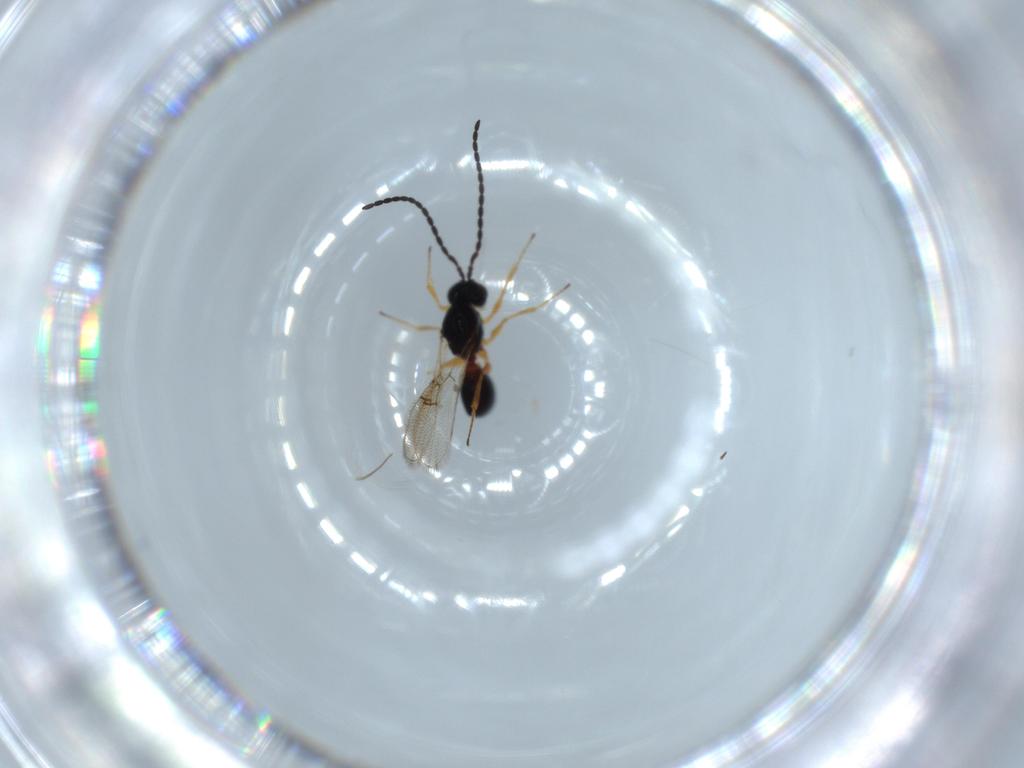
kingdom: Animalia
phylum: Arthropoda
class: Insecta
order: Hymenoptera
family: Figitidae
